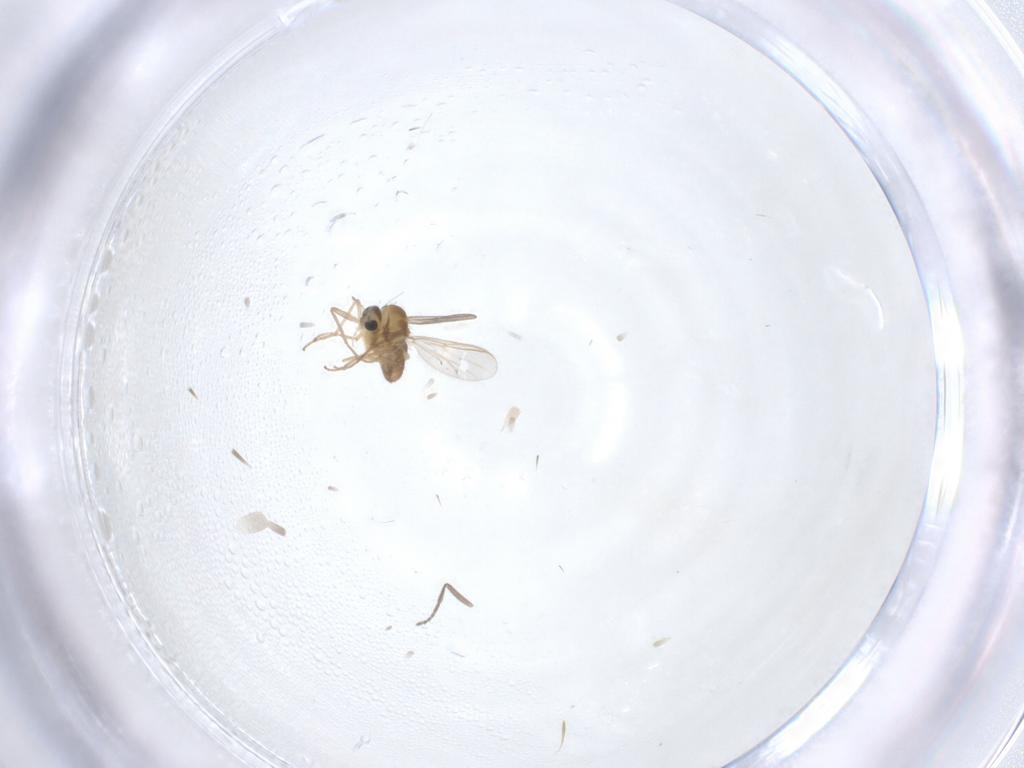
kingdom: Animalia
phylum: Arthropoda
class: Insecta
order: Diptera
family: Chironomidae
